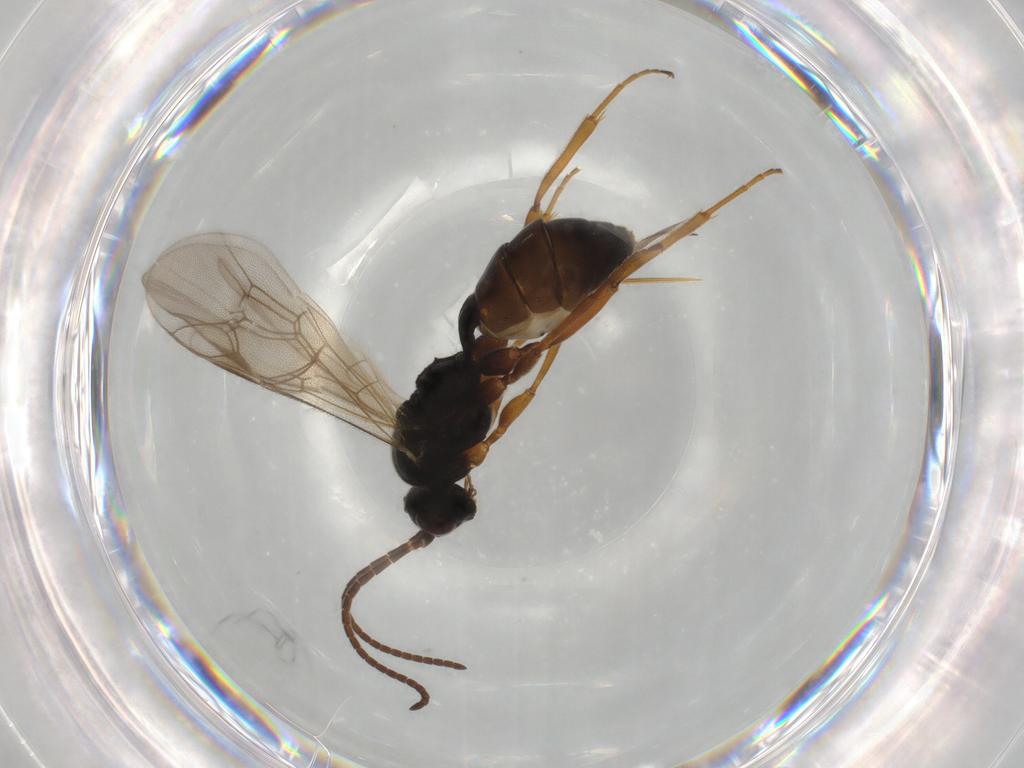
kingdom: Animalia
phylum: Arthropoda
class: Insecta
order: Hymenoptera
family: Ichneumonidae
